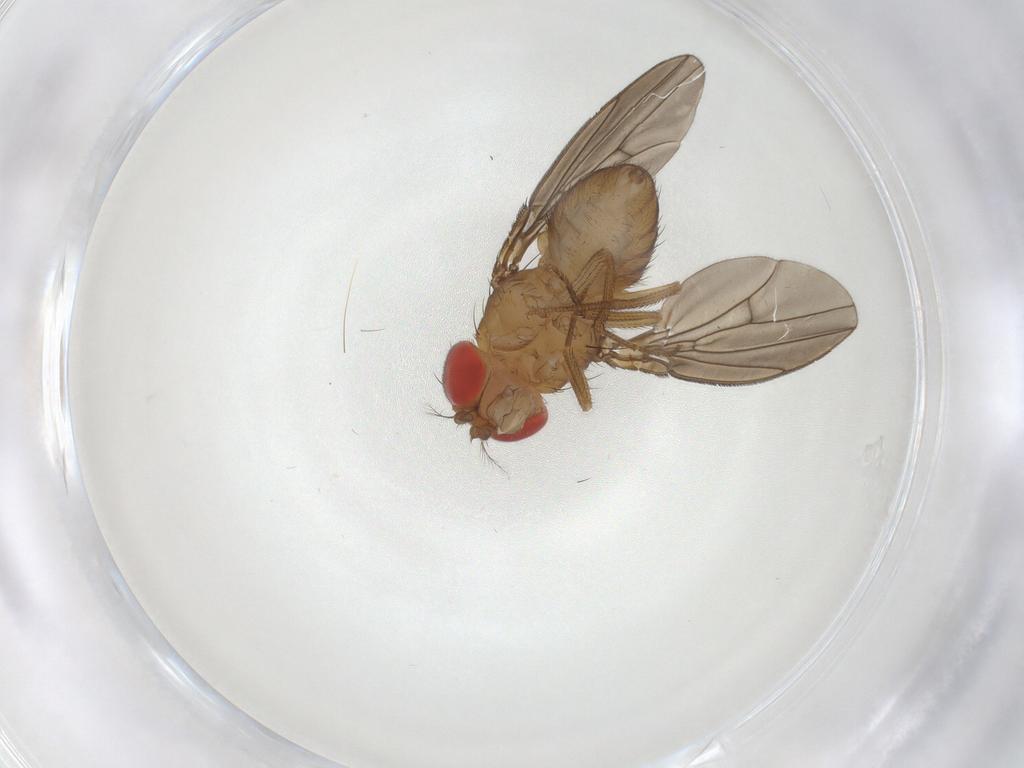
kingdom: Animalia
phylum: Arthropoda
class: Insecta
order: Diptera
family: Drosophilidae
